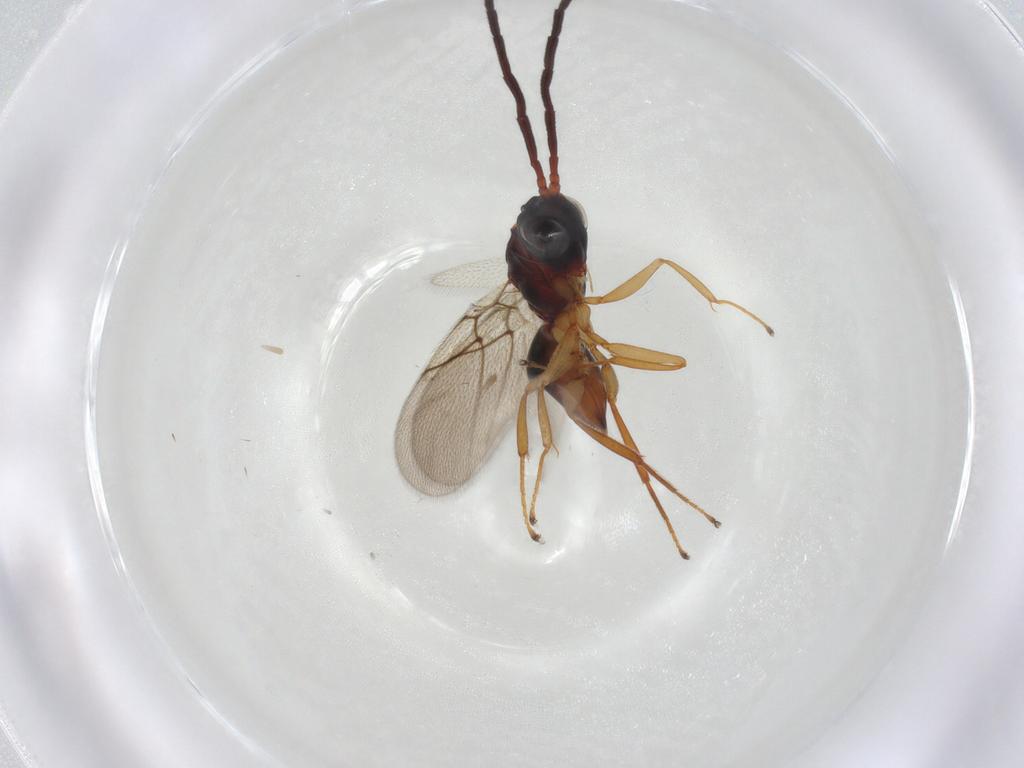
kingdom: Animalia
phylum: Arthropoda
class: Insecta
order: Hymenoptera
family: Figitidae
